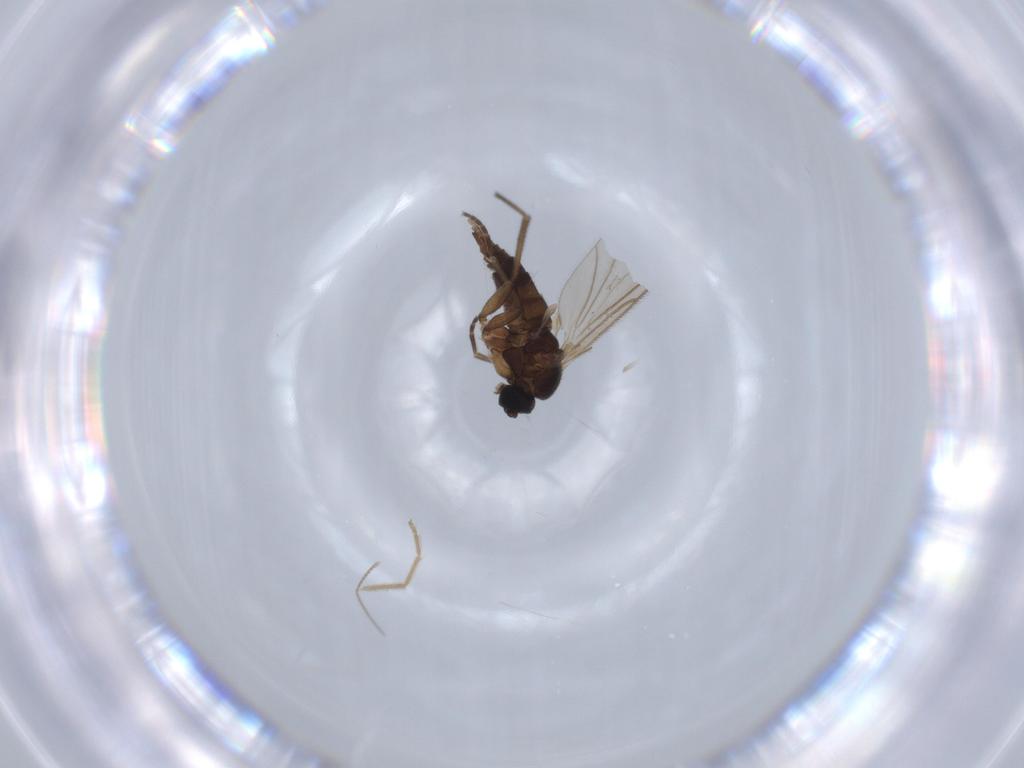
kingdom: Animalia
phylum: Arthropoda
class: Insecta
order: Diptera
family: Sciaridae
